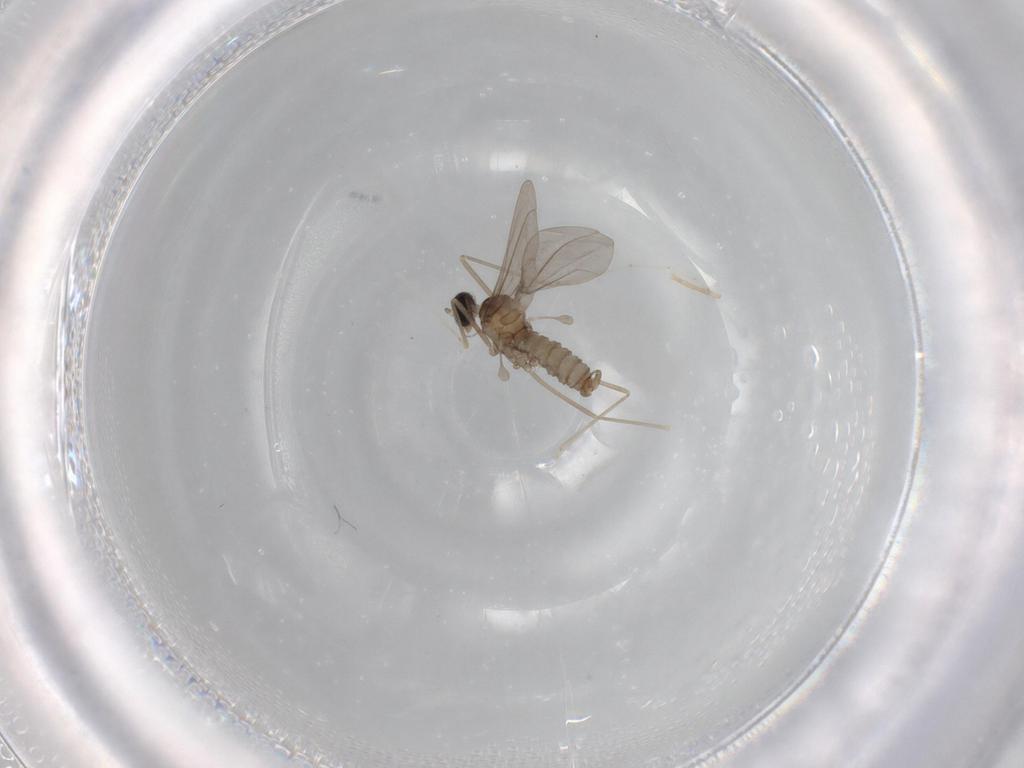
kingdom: Animalia
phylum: Arthropoda
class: Insecta
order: Diptera
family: Cecidomyiidae
